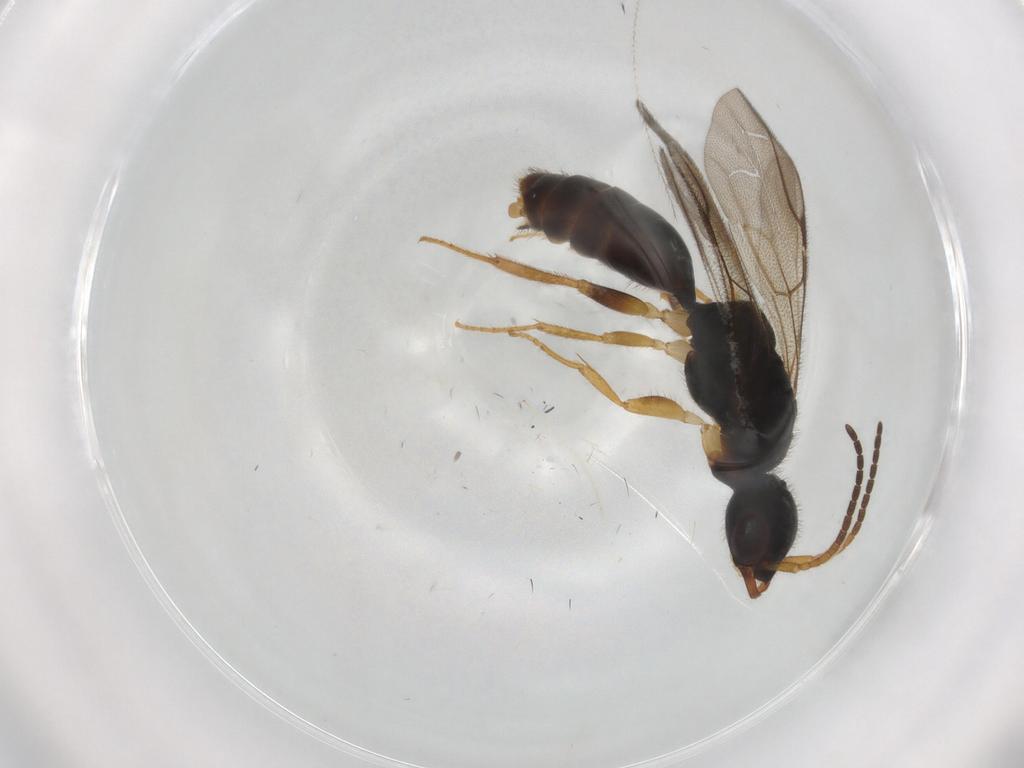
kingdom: Animalia
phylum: Arthropoda
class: Insecta
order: Hymenoptera
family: Bethylidae
